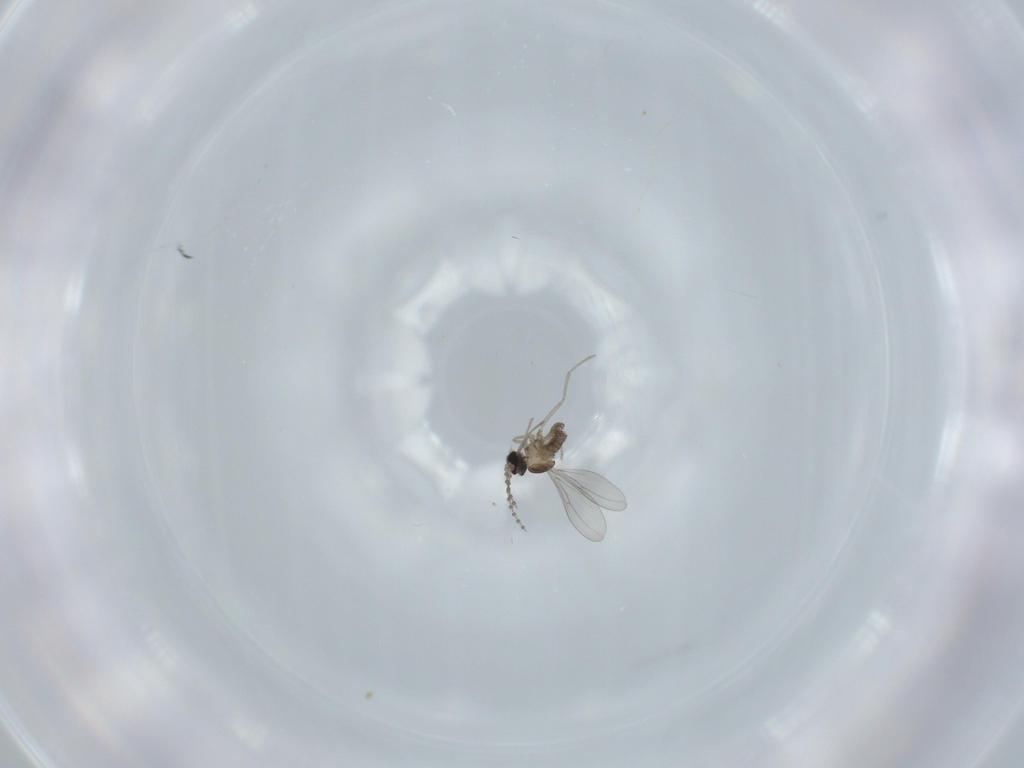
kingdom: Animalia
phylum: Arthropoda
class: Insecta
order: Diptera
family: Cecidomyiidae
